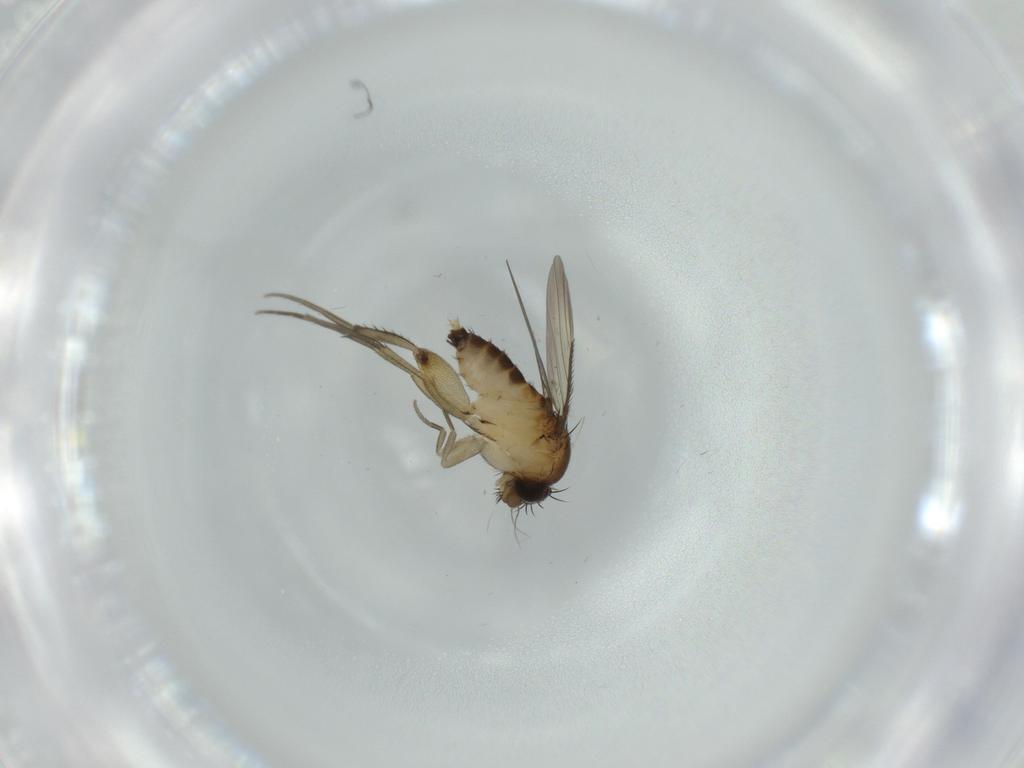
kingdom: Animalia
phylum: Arthropoda
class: Insecta
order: Diptera
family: Phoridae
